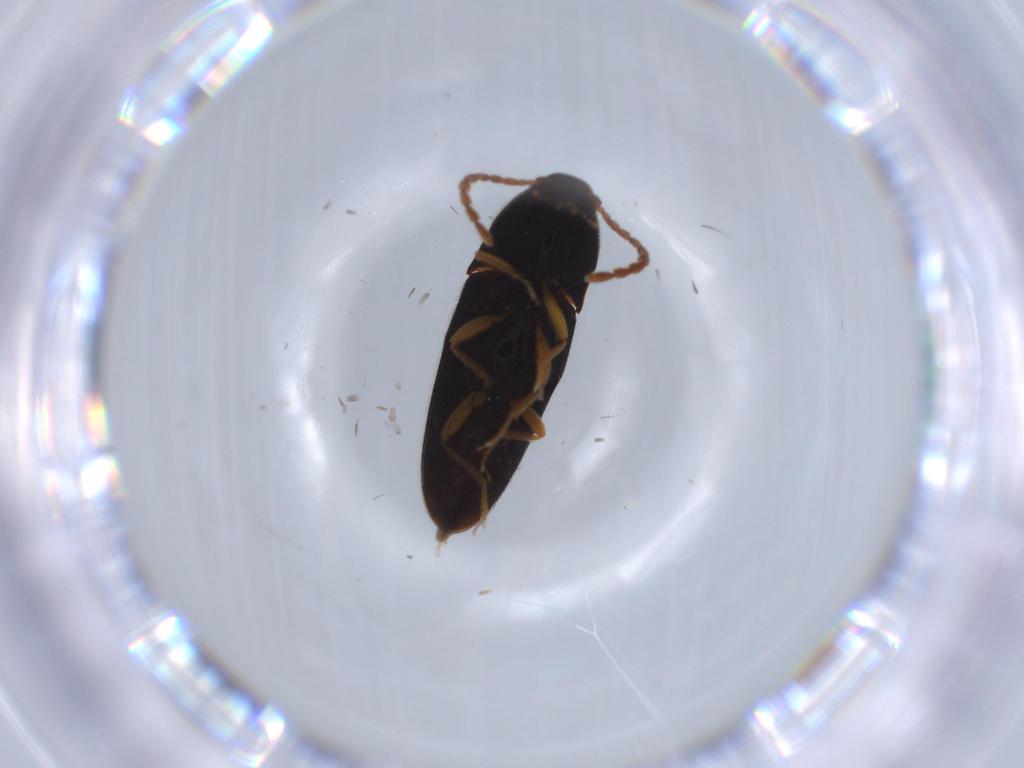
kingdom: Animalia
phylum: Arthropoda
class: Insecta
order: Coleoptera
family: Elateridae
